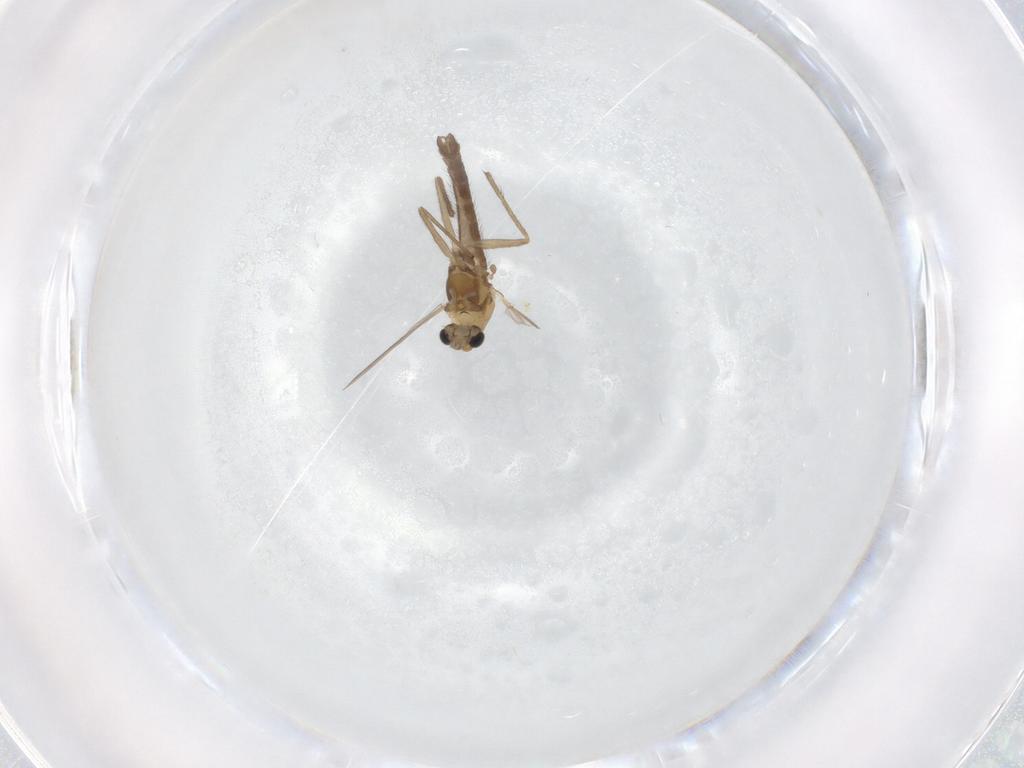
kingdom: Animalia
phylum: Arthropoda
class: Insecta
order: Diptera
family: Chironomidae
